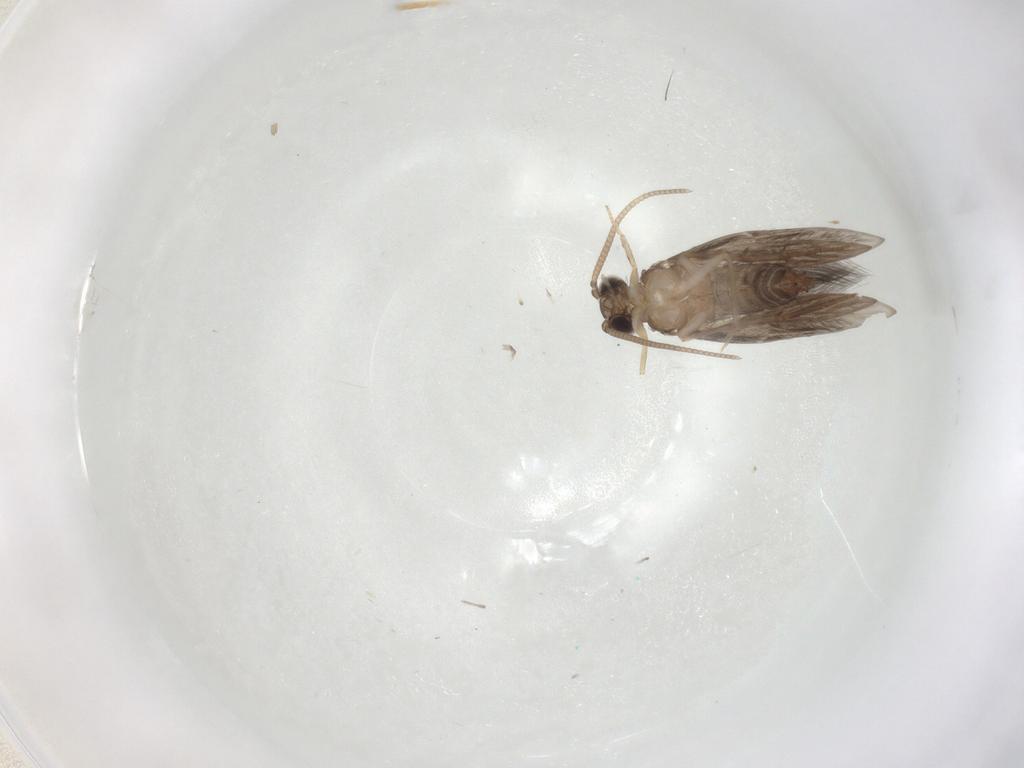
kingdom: Animalia
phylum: Arthropoda
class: Insecta
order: Trichoptera
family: Hydroptilidae
